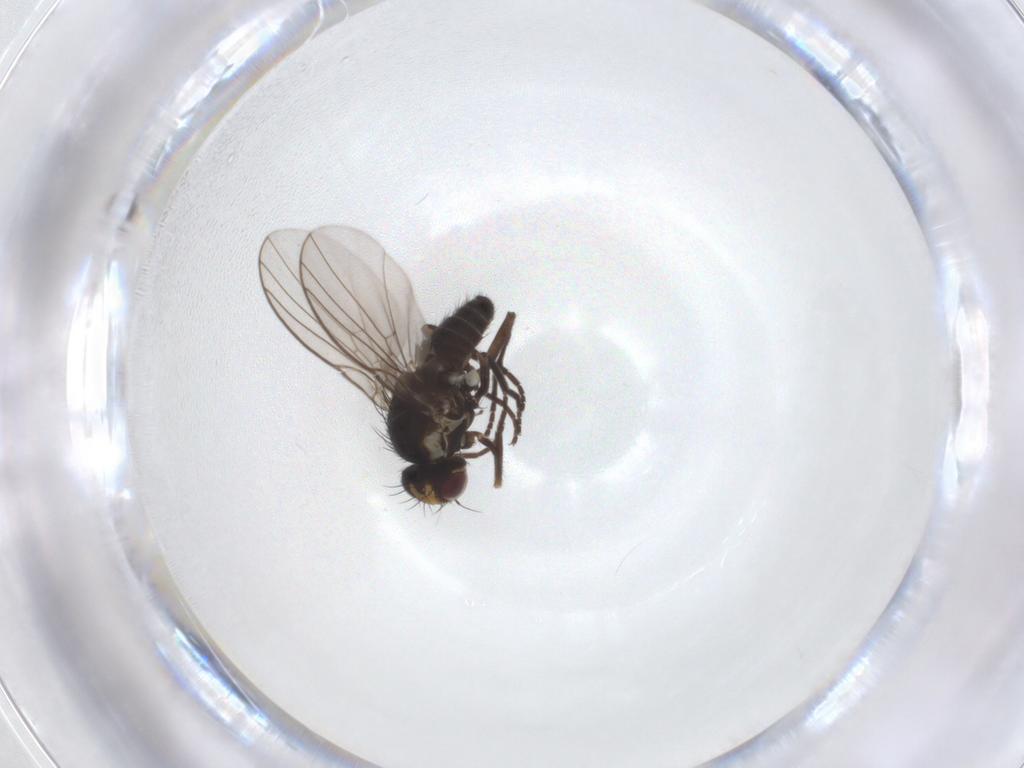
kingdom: Animalia
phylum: Arthropoda
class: Insecta
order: Diptera
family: Agromyzidae
